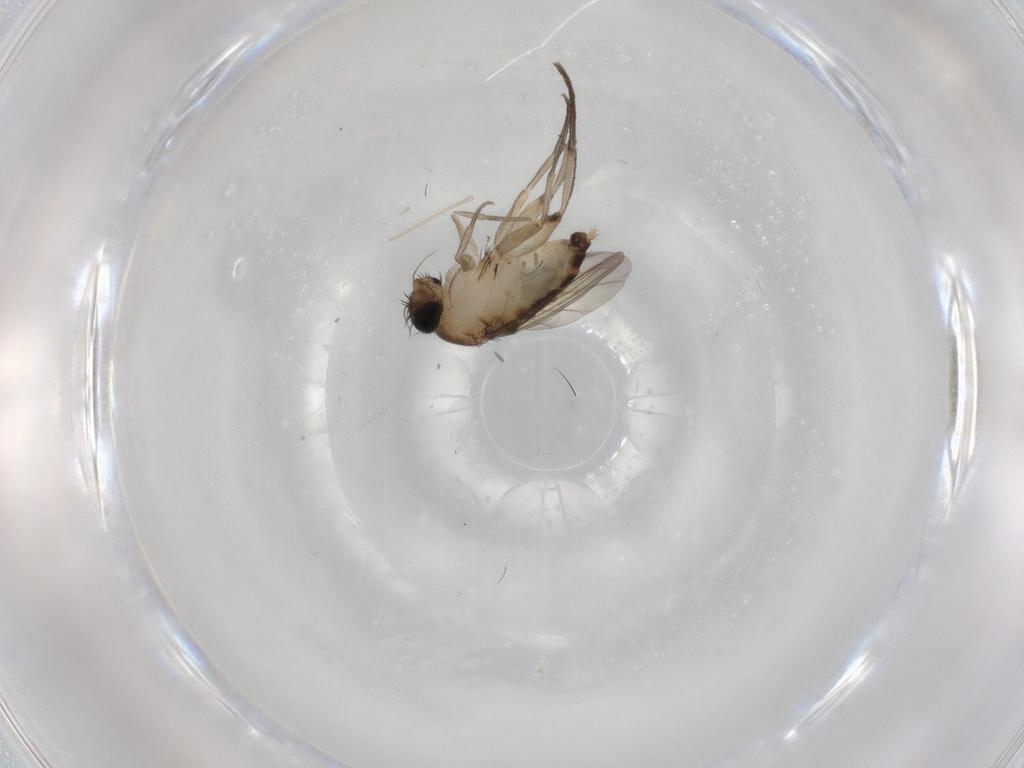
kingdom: Animalia
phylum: Arthropoda
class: Insecta
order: Diptera
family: Phoridae
